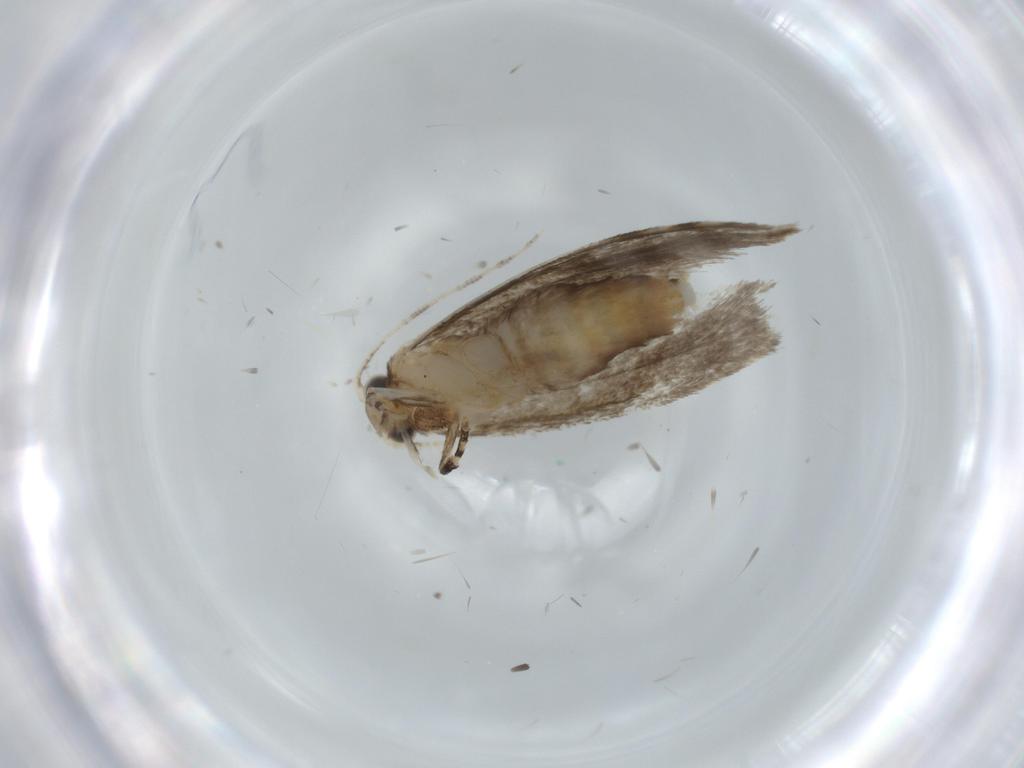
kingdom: Animalia
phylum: Arthropoda
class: Insecta
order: Lepidoptera
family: Tineidae
